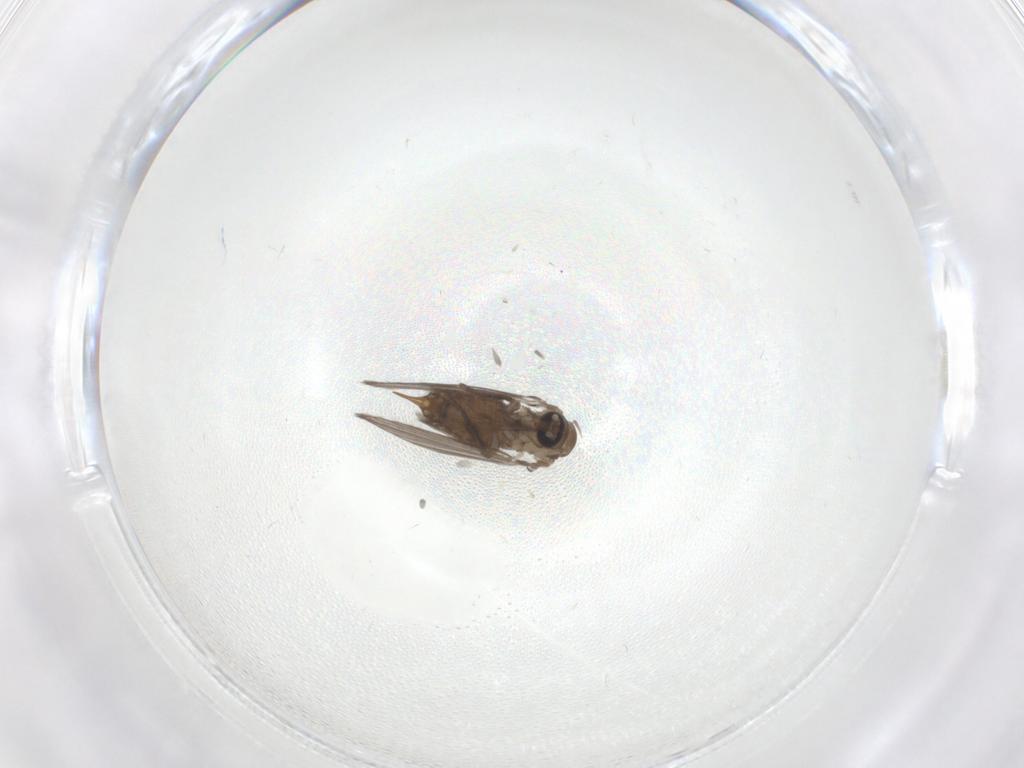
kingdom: Animalia
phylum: Arthropoda
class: Insecta
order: Diptera
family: Psychodidae
